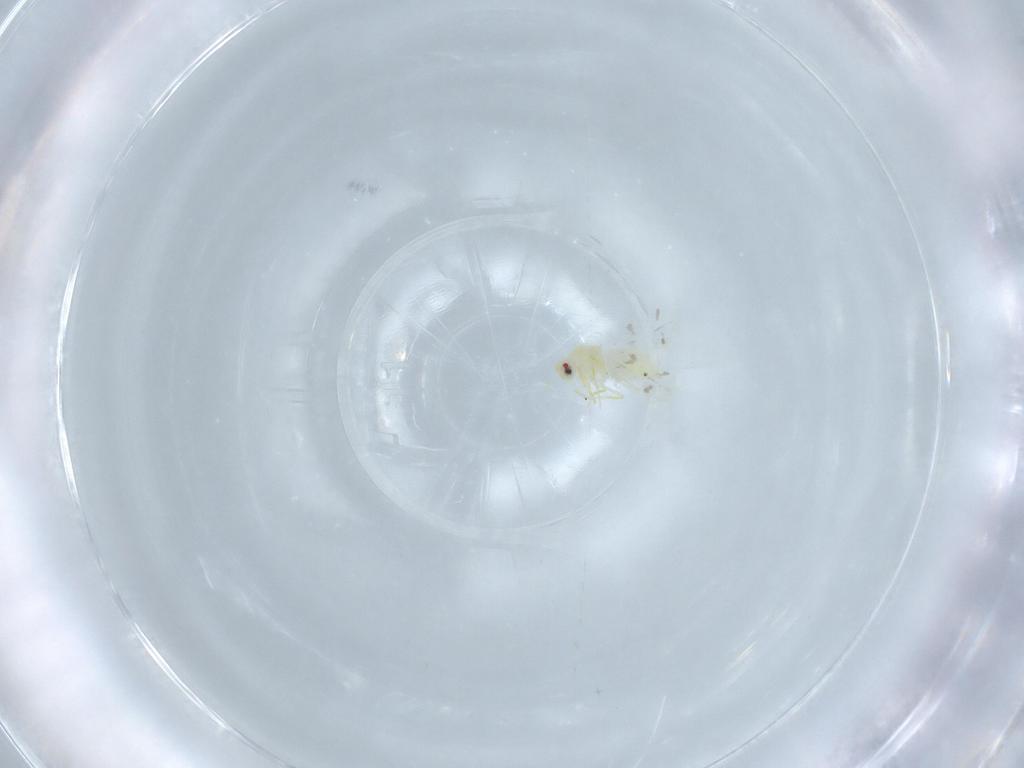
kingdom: Animalia
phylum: Arthropoda
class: Insecta
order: Hemiptera
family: Aleyrodidae
